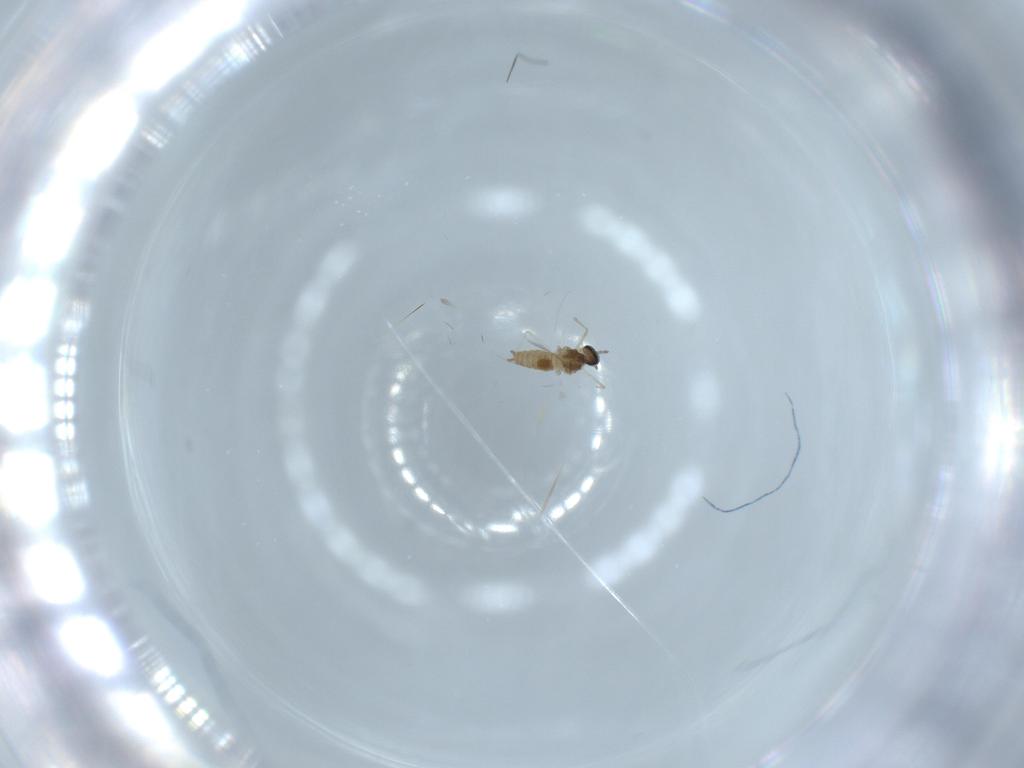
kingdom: Animalia
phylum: Arthropoda
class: Insecta
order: Diptera
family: Cecidomyiidae
